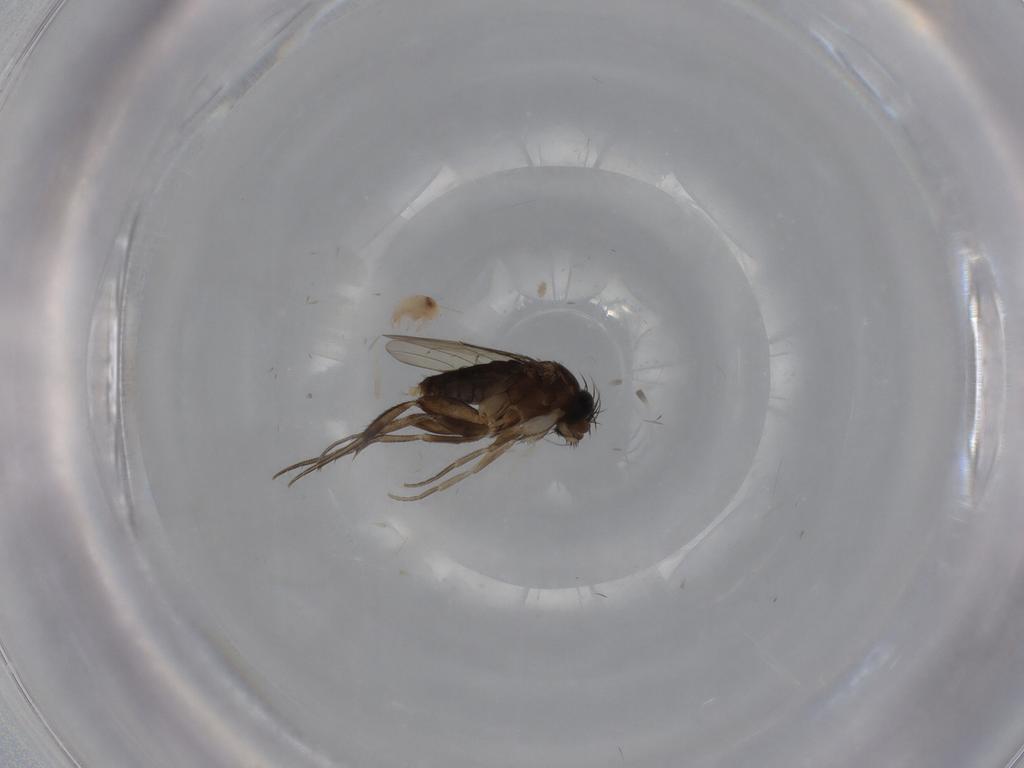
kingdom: Animalia
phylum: Arthropoda
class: Insecta
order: Diptera
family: Phoridae
